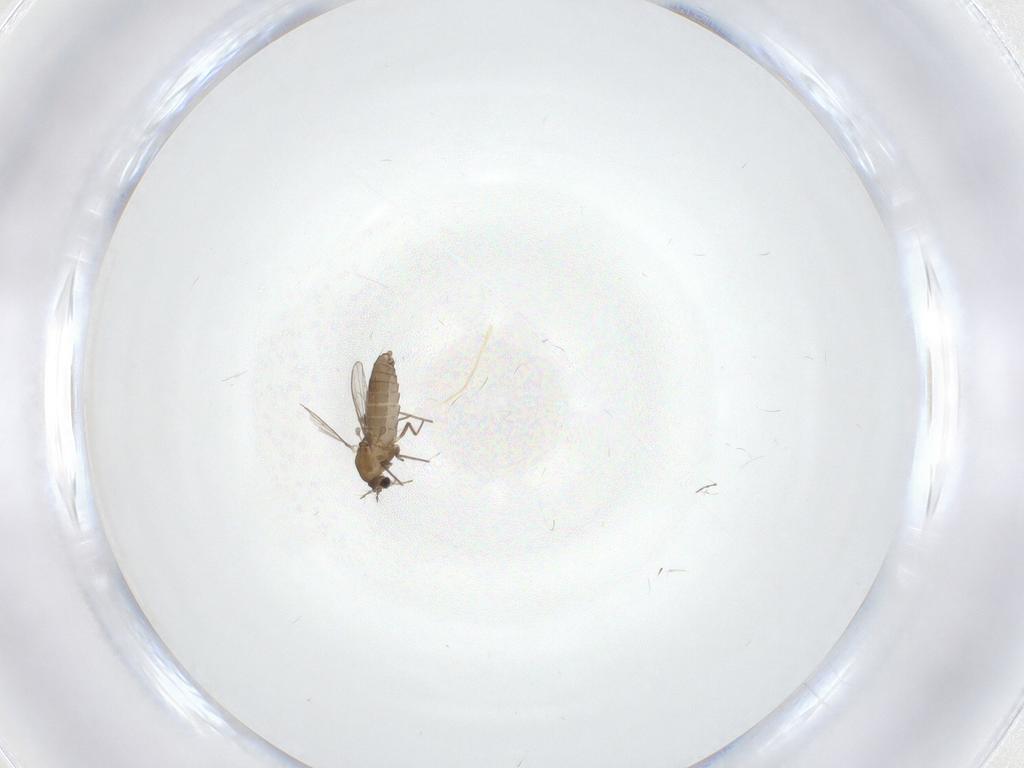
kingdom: Animalia
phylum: Arthropoda
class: Insecta
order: Diptera
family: Chironomidae
